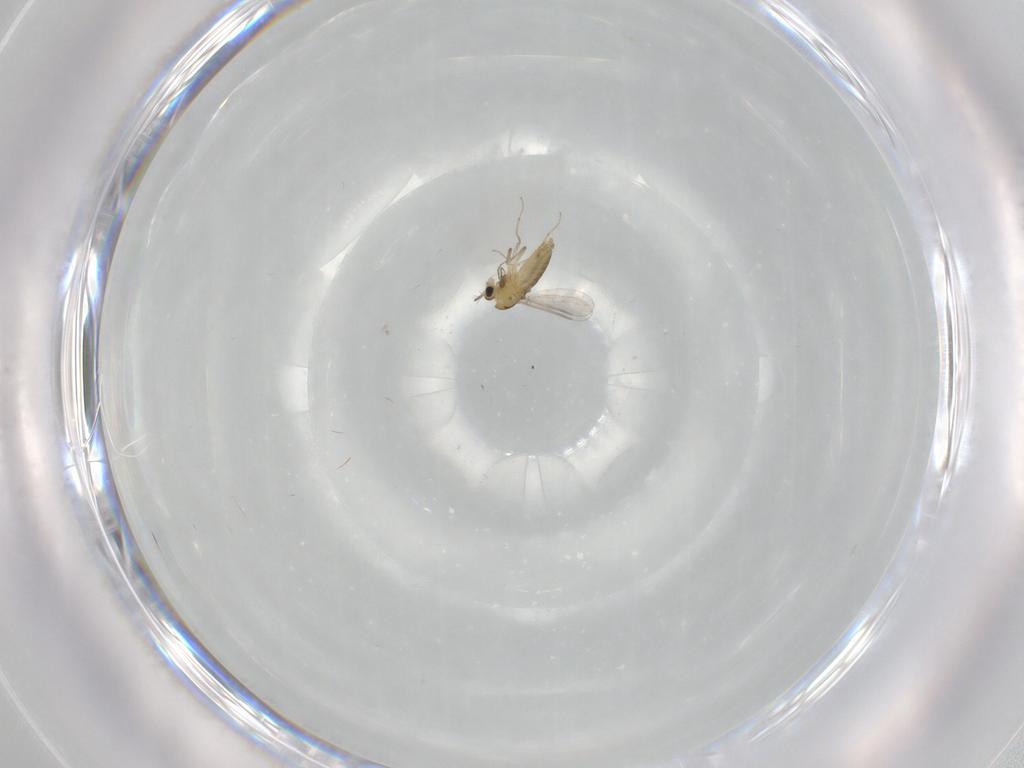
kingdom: Animalia
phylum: Arthropoda
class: Insecta
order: Diptera
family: Chironomidae
